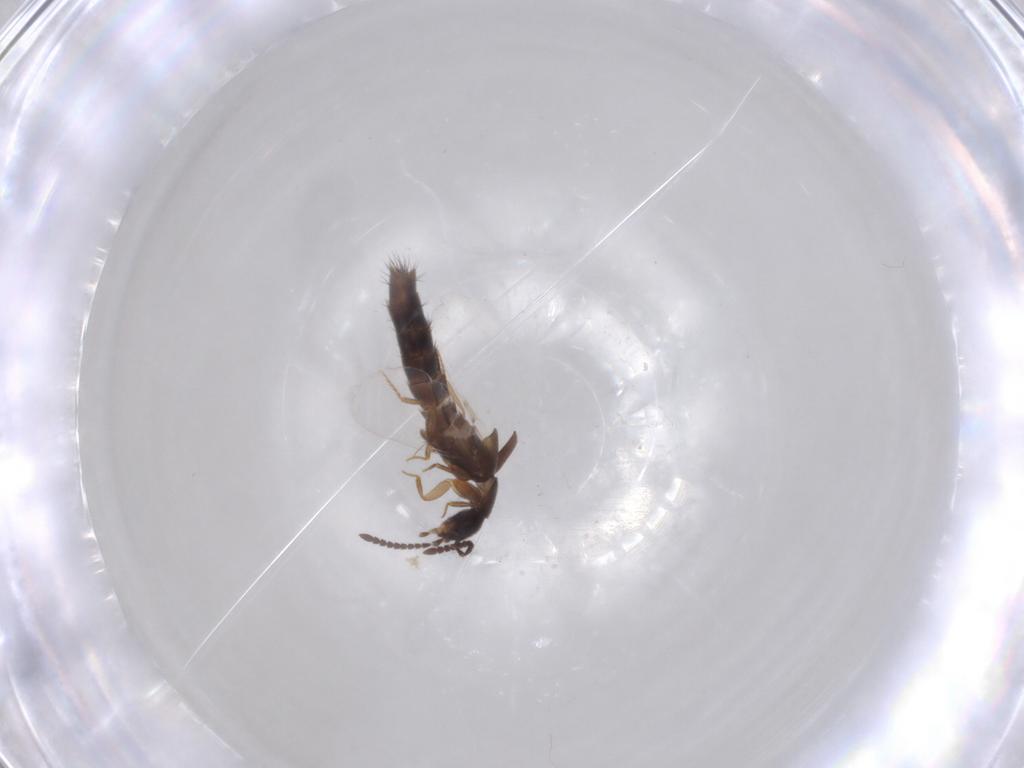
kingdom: Animalia
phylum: Arthropoda
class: Insecta
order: Coleoptera
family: Staphylinidae
